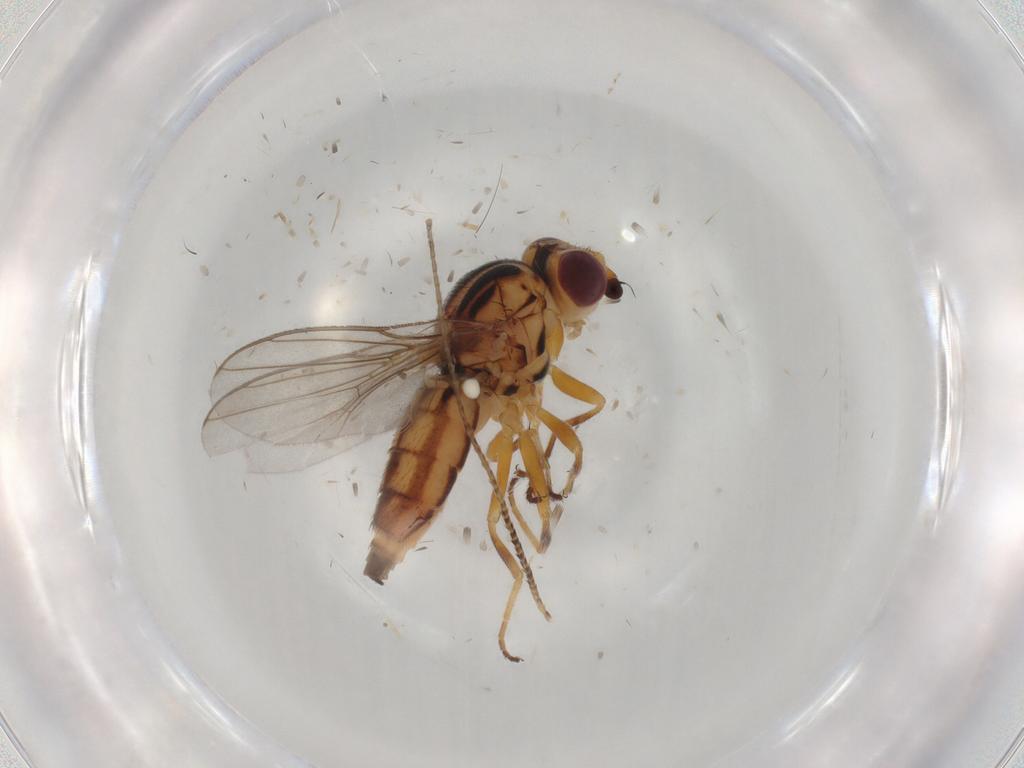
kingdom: Animalia
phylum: Arthropoda
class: Insecta
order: Diptera
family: Chloropidae
